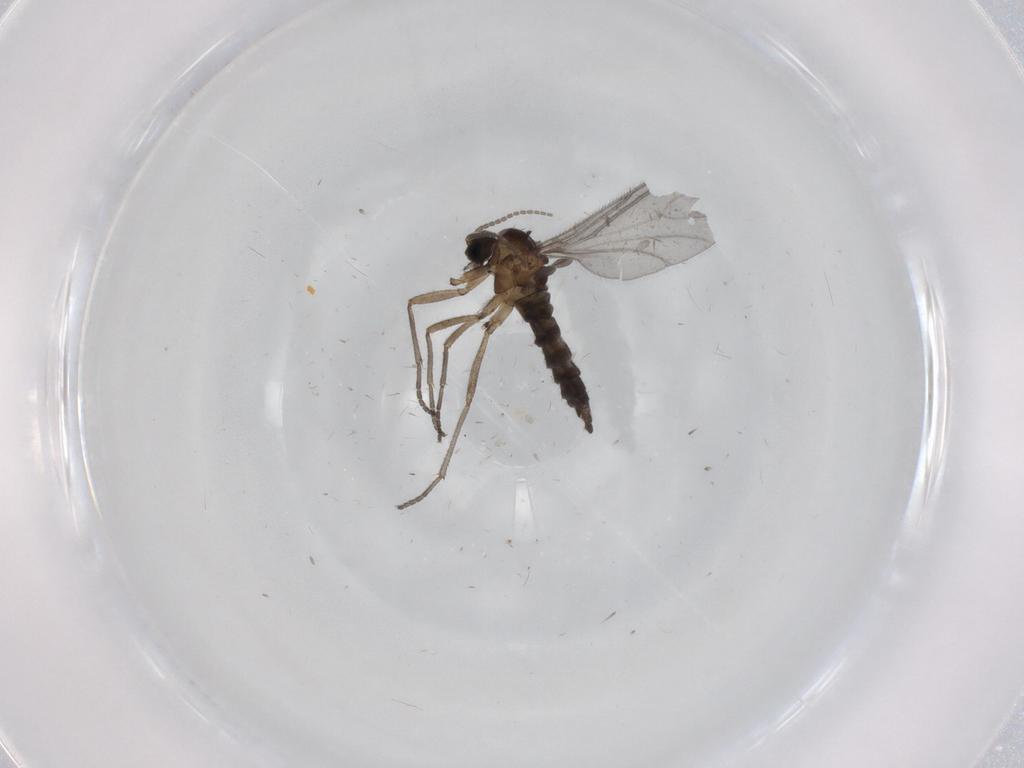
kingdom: Animalia
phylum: Arthropoda
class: Insecta
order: Diptera
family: Sciaridae
